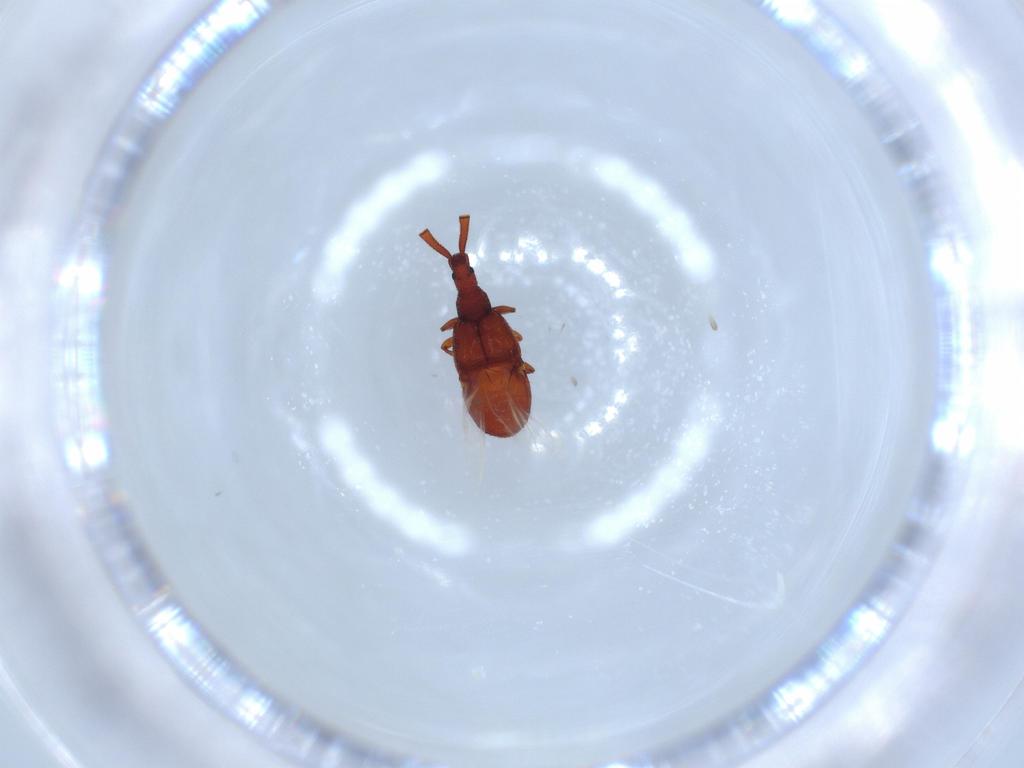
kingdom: Animalia
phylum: Arthropoda
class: Insecta
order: Coleoptera
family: Staphylinidae
